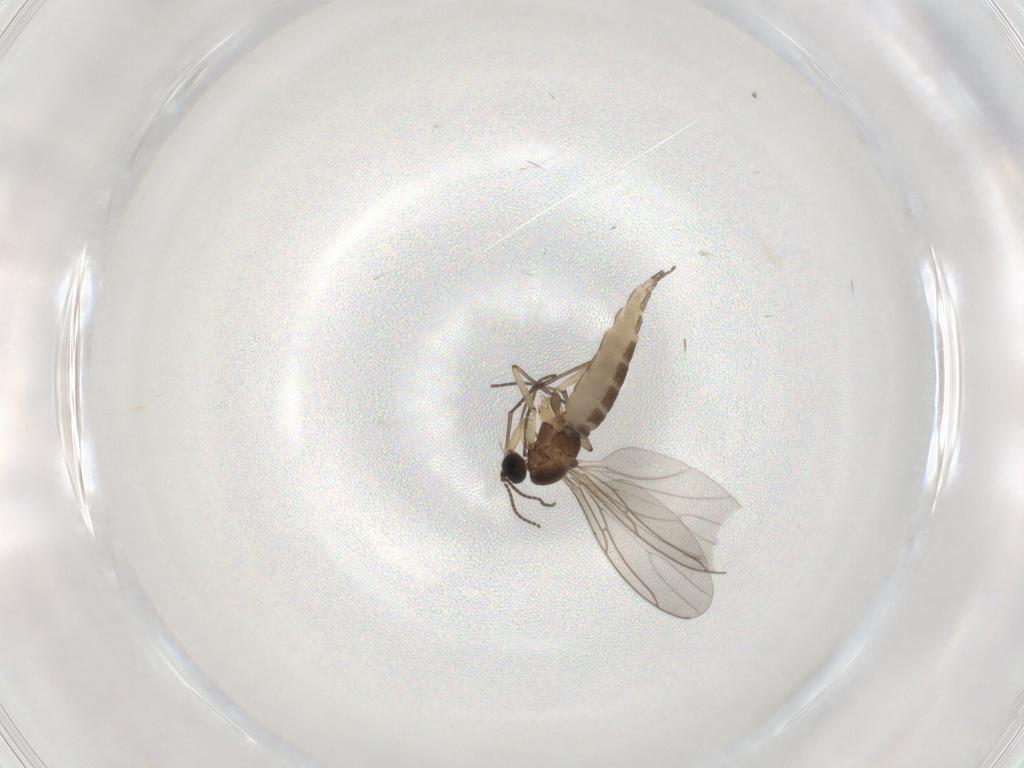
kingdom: Animalia
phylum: Arthropoda
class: Insecta
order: Diptera
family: Sciaridae
